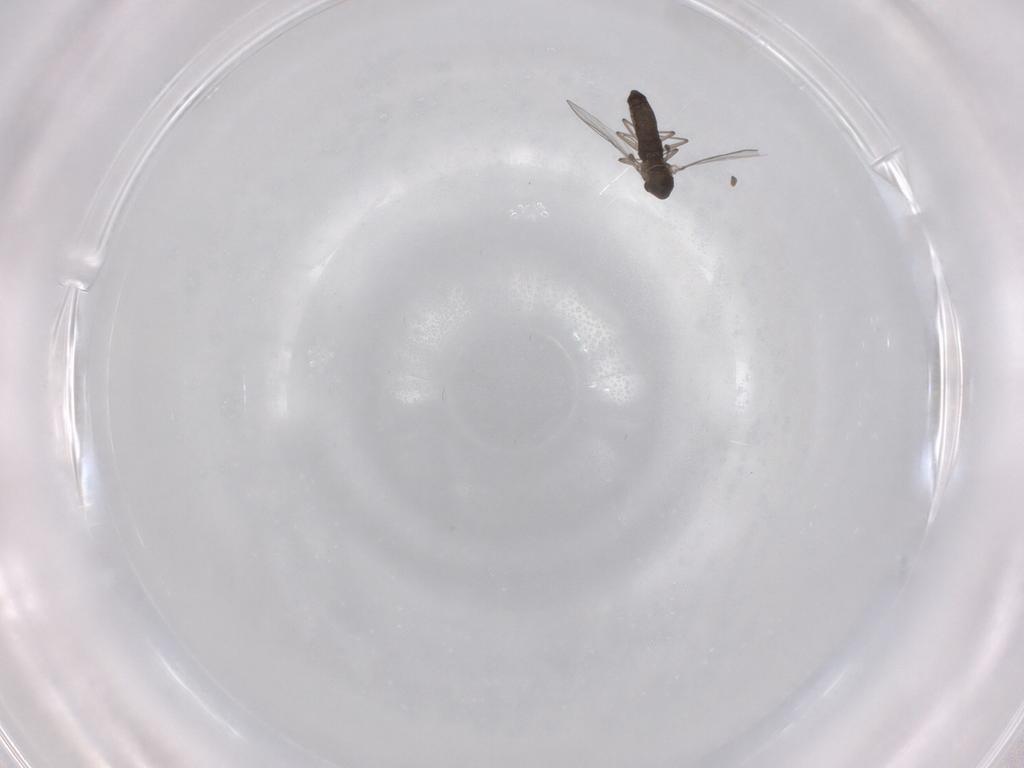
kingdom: Animalia
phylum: Arthropoda
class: Insecta
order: Diptera
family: Chironomidae
